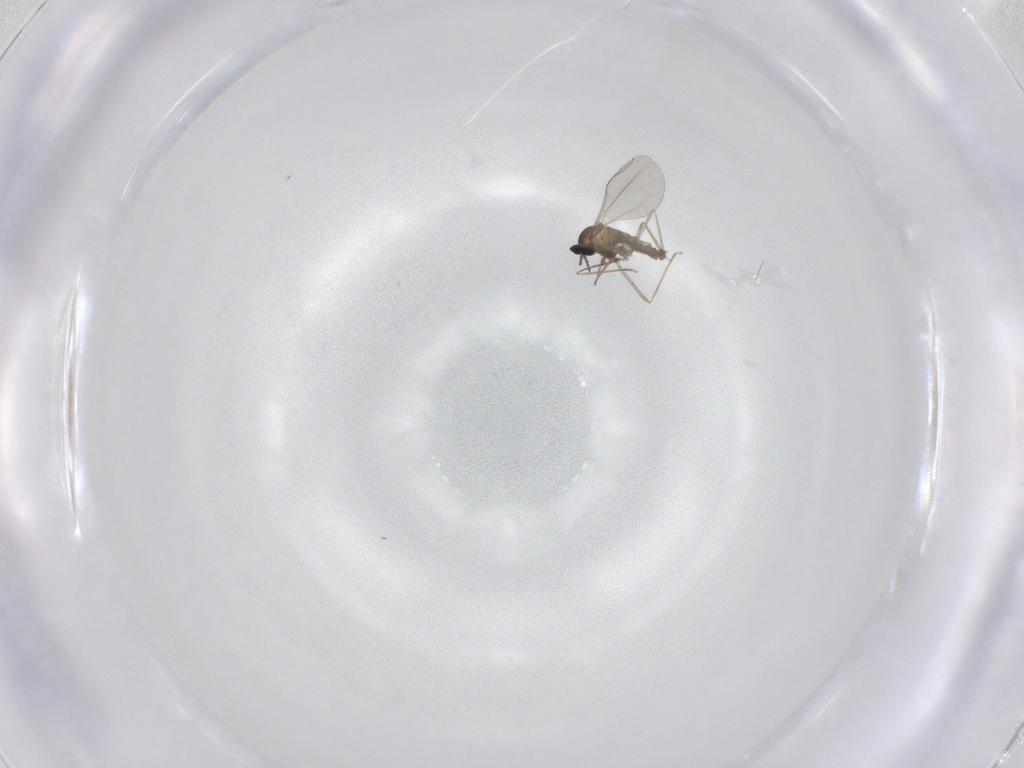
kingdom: Animalia
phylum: Arthropoda
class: Insecta
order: Diptera
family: Cecidomyiidae
